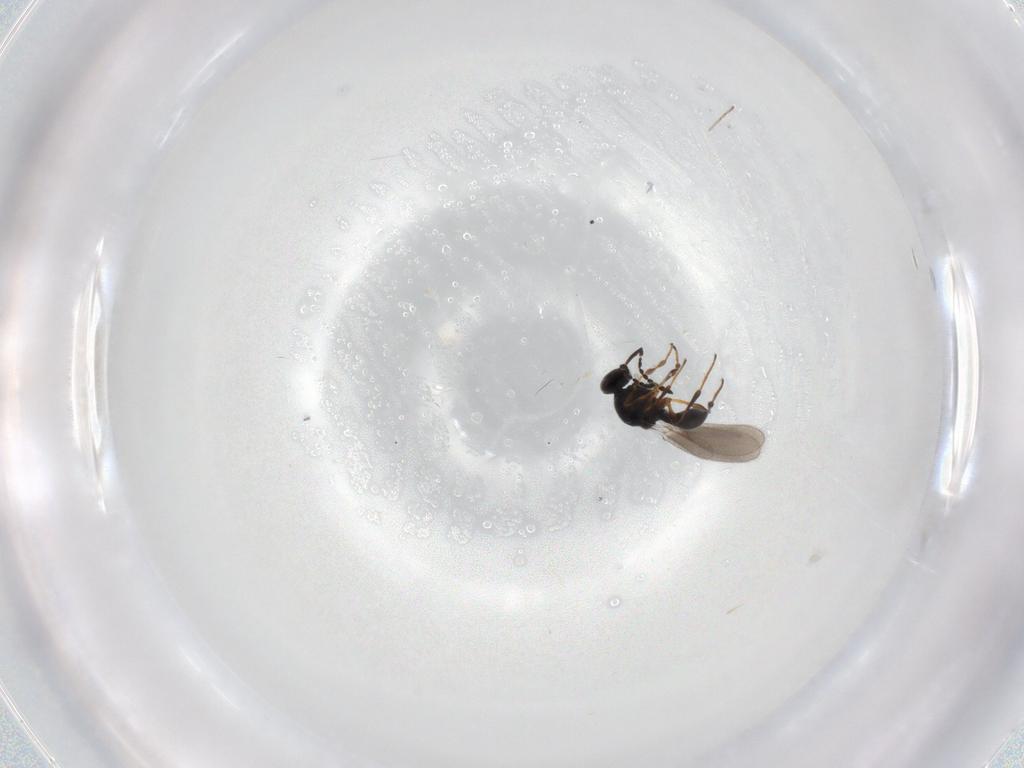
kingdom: Animalia
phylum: Arthropoda
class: Insecta
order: Hymenoptera
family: Platygastridae
